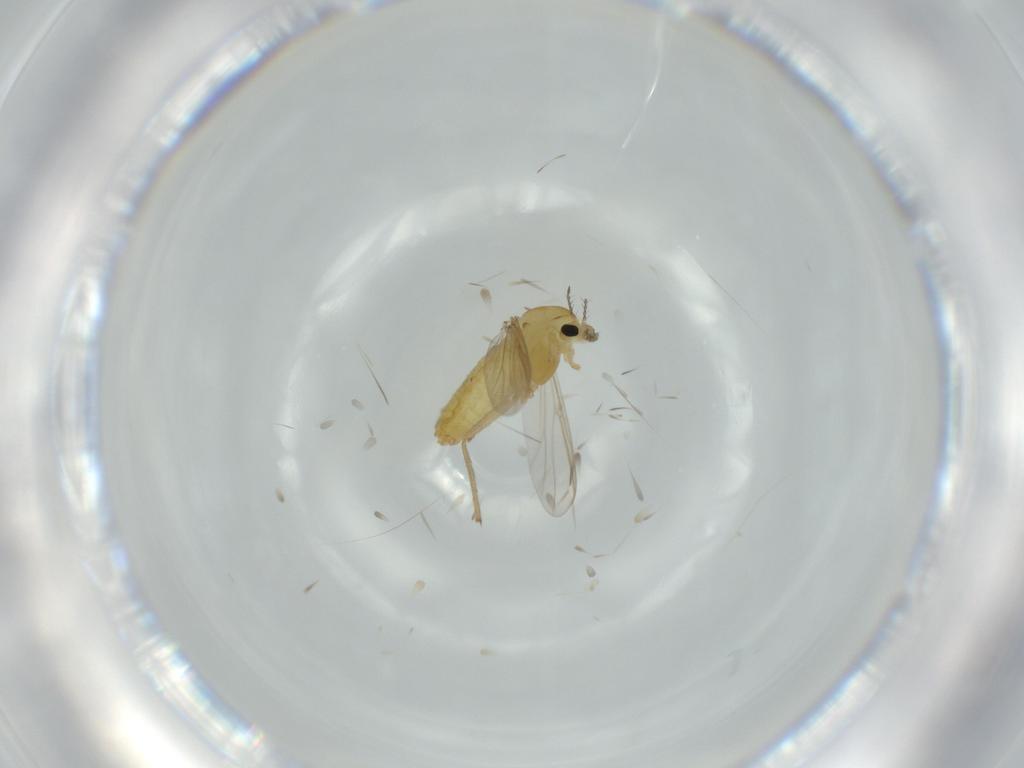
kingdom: Animalia
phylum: Arthropoda
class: Insecta
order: Diptera
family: Chironomidae
